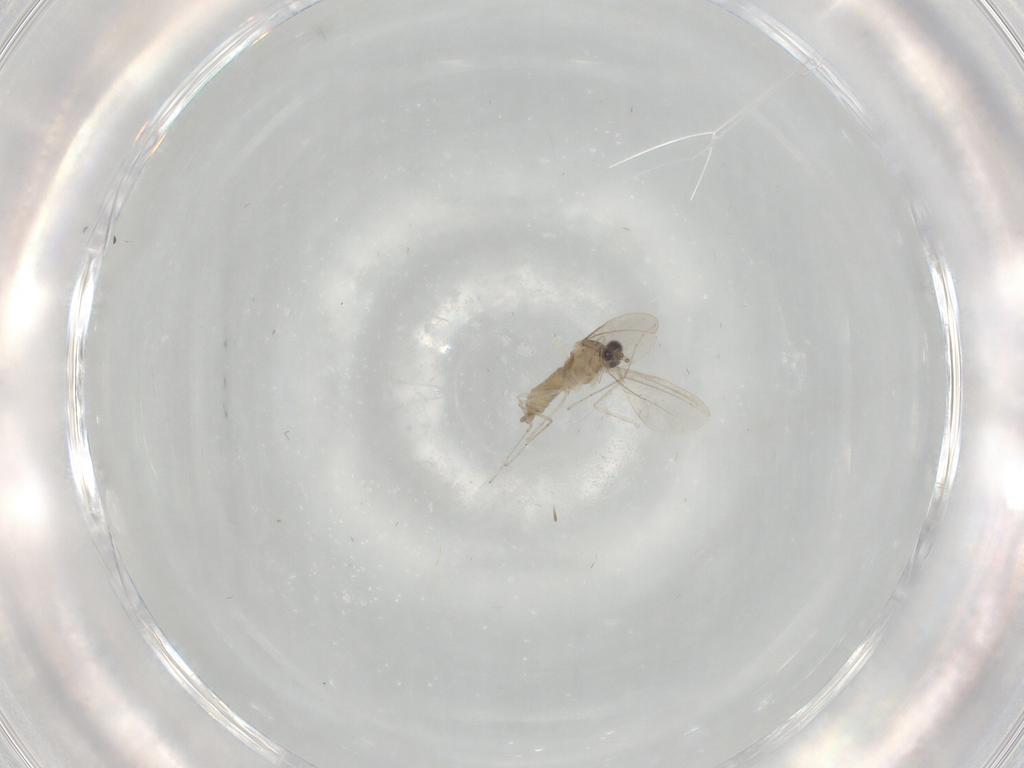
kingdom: Animalia
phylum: Arthropoda
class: Insecta
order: Diptera
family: Cecidomyiidae
